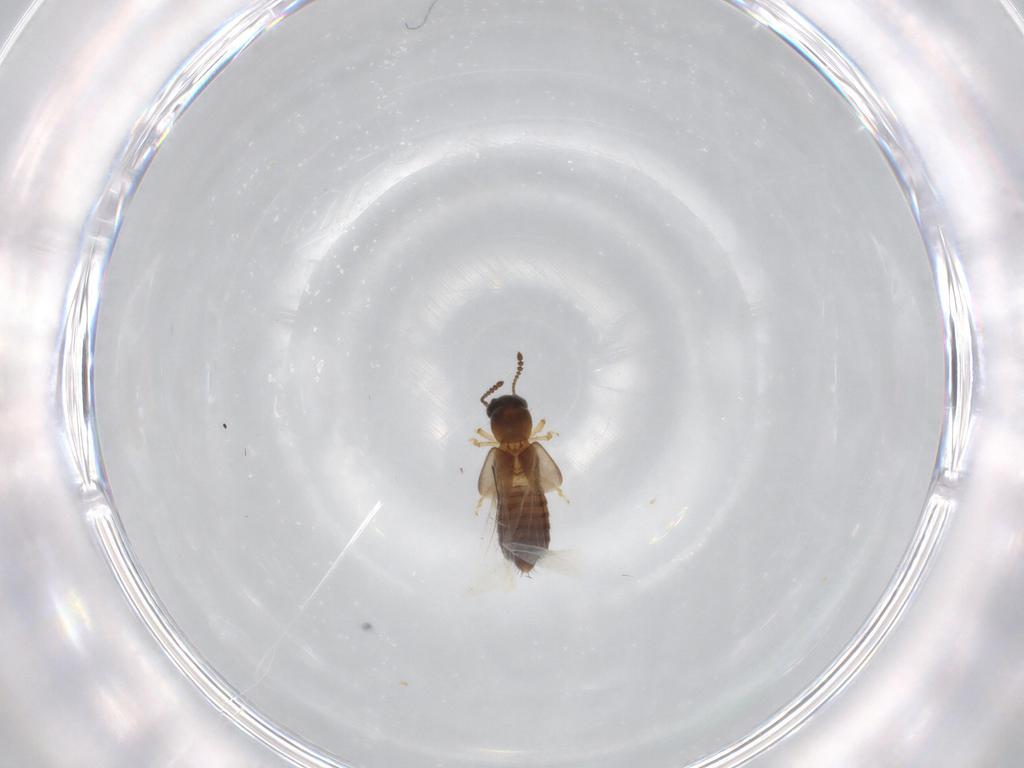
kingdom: Animalia
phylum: Arthropoda
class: Insecta
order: Coleoptera
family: Staphylinidae
